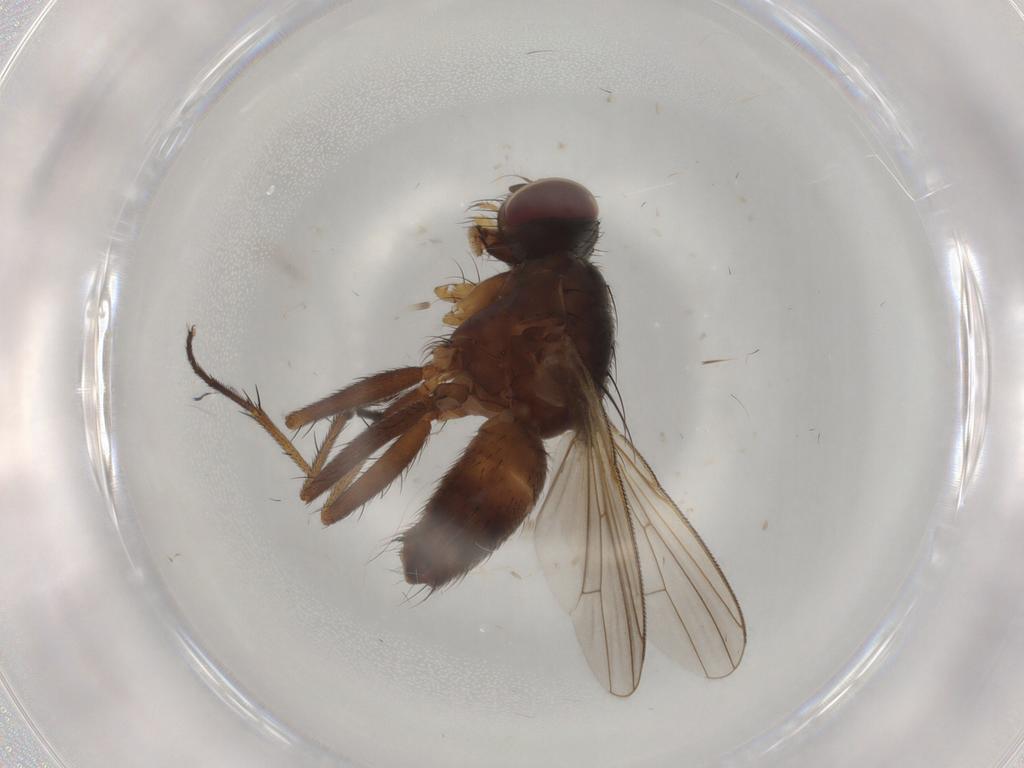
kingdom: Animalia
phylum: Arthropoda
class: Insecta
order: Diptera
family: Muscidae
